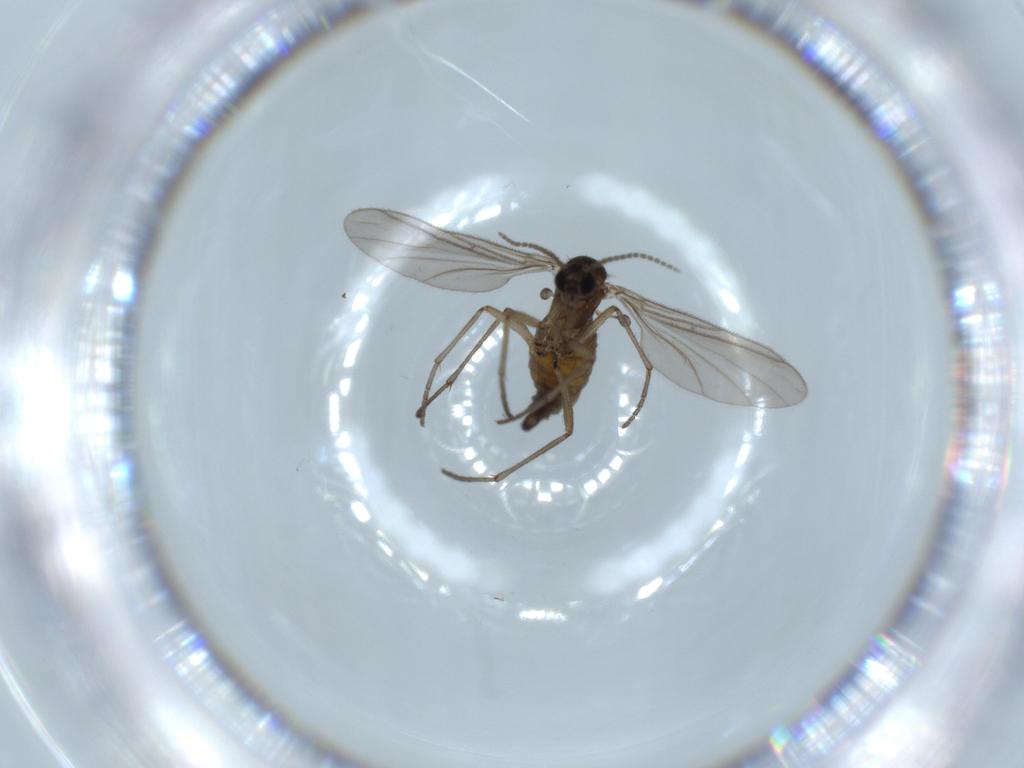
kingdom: Animalia
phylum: Arthropoda
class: Insecta
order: Diptera
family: Sciaridae
